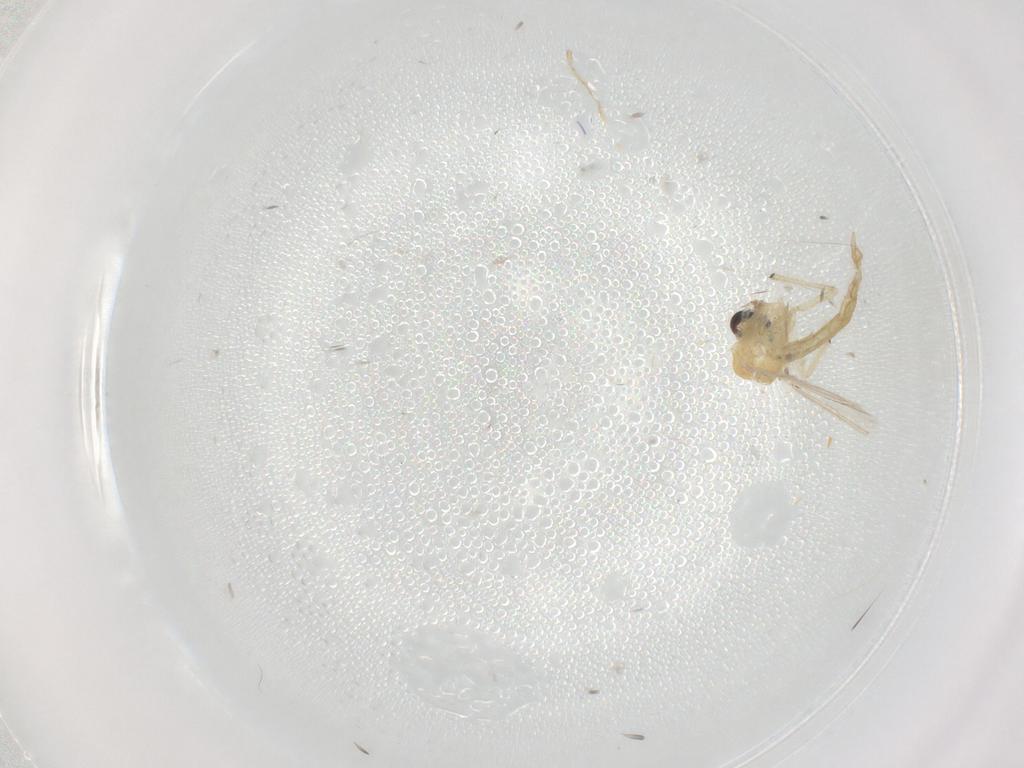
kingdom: Animalia
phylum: Arthropoda
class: Insecta
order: Diptera
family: Chironomidae
